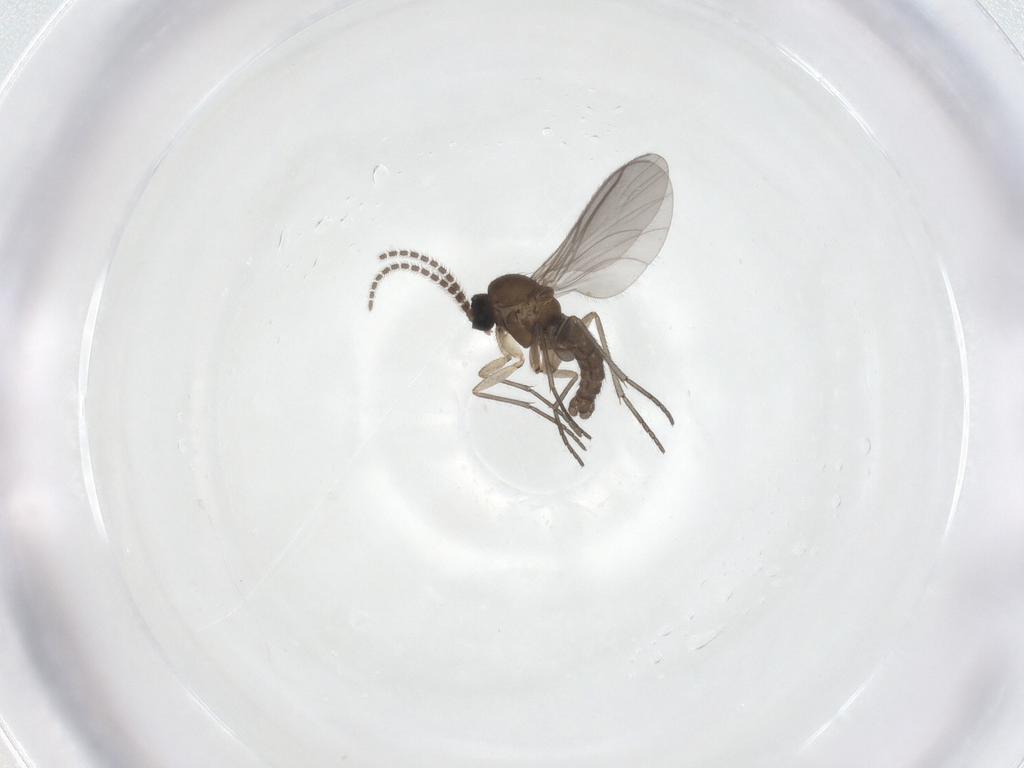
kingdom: Animalia
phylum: Arthropoda
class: Insecta
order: Diptera
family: Sciaridae
